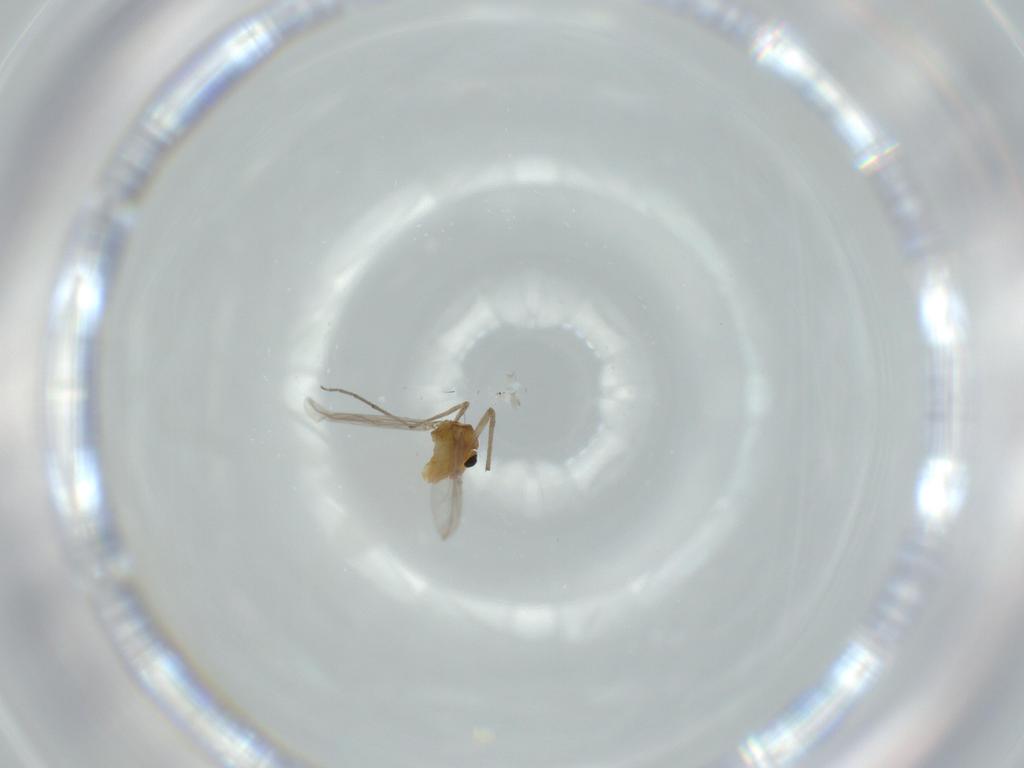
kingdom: Animalia
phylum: Arthropoda
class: Insecta
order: Diptera
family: Chironomidae
